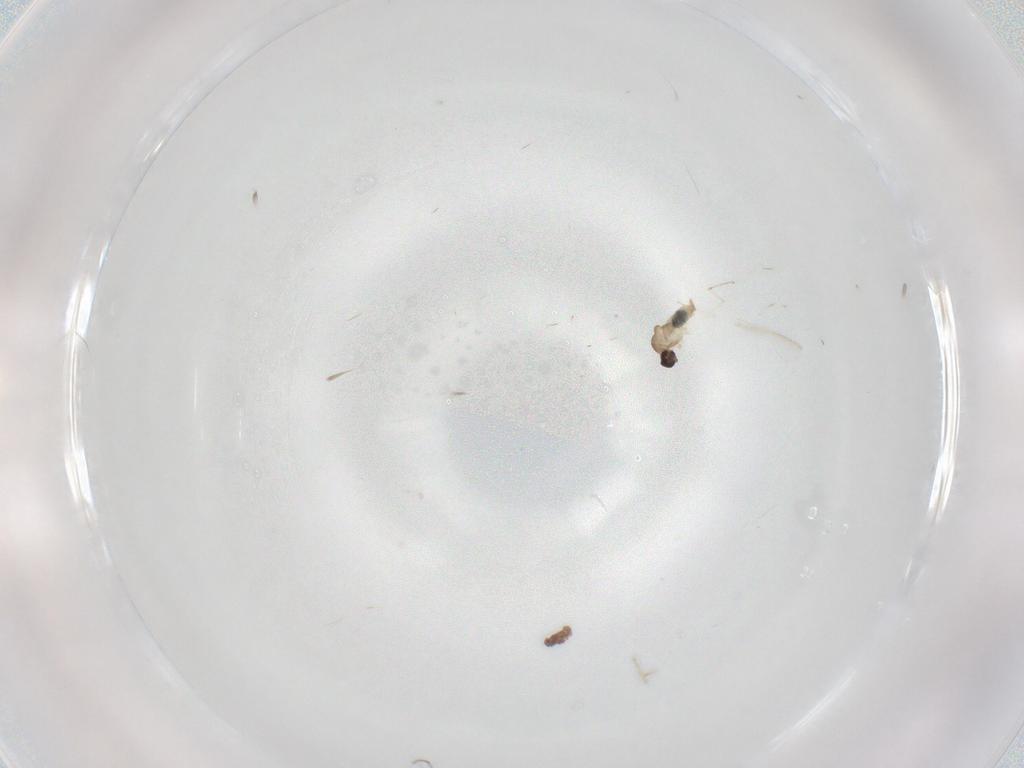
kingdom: Animalia
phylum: Arthropoda
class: Insecta
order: Diptera
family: Cecidomyiidae
